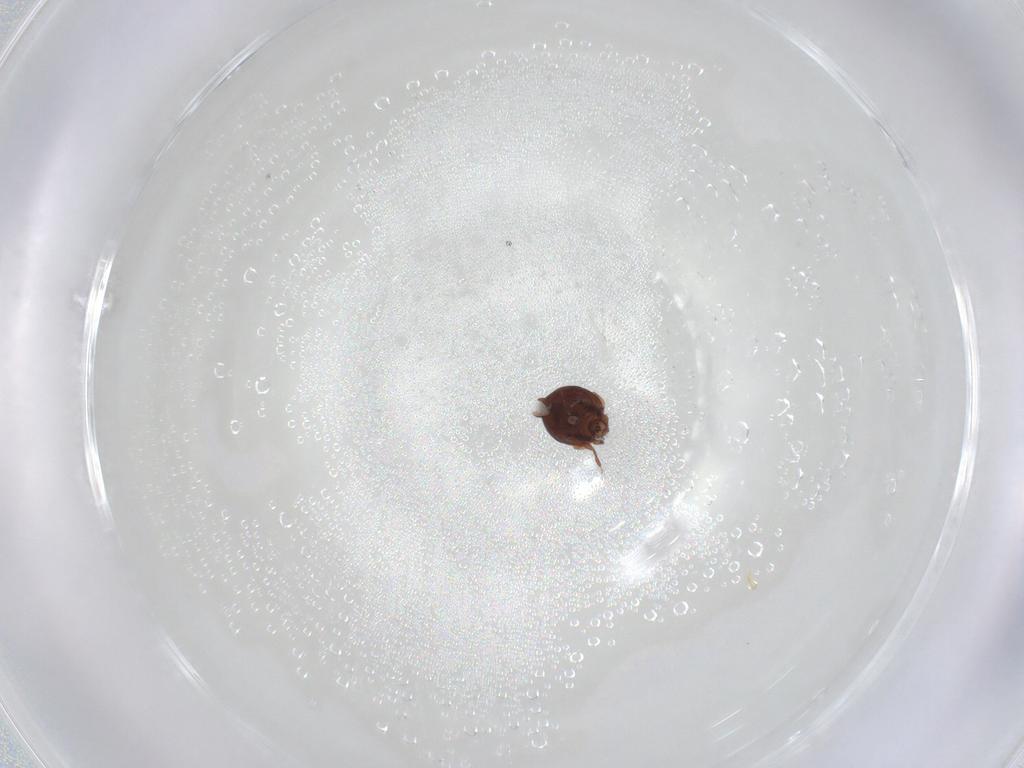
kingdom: Animalia
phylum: Arthropoda
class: Arachnida
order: Sarcoptiformes
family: Humerobatidae
